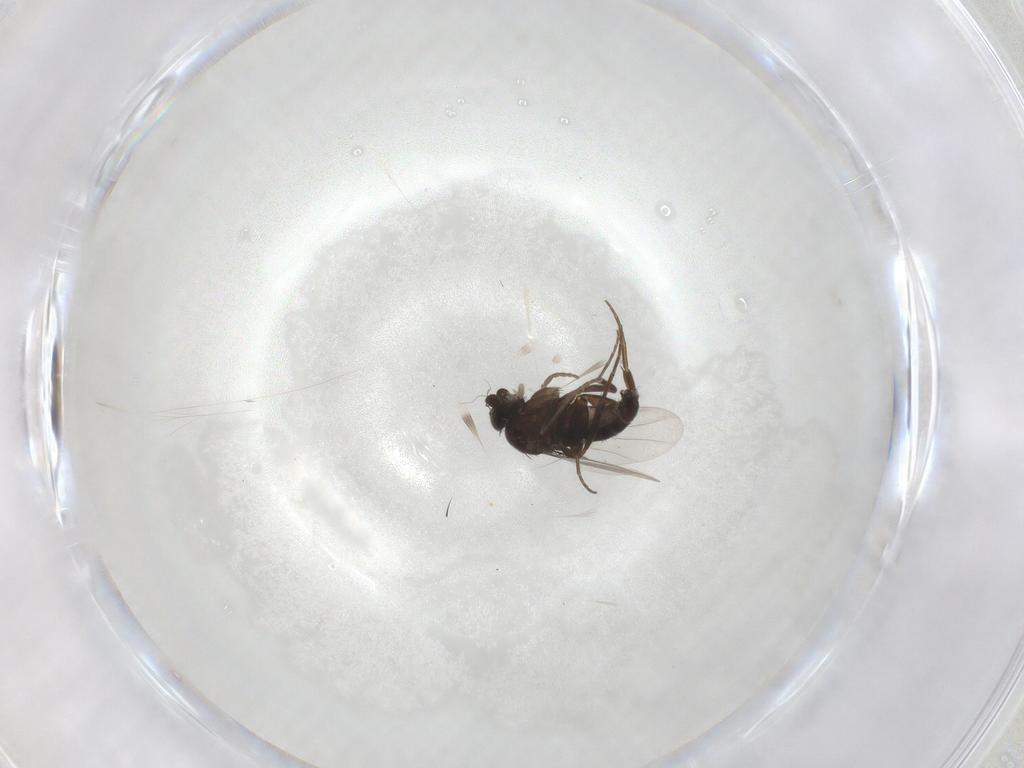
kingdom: Animalia
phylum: Arthropoda
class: Insecta
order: Diptera
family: Phoridae
